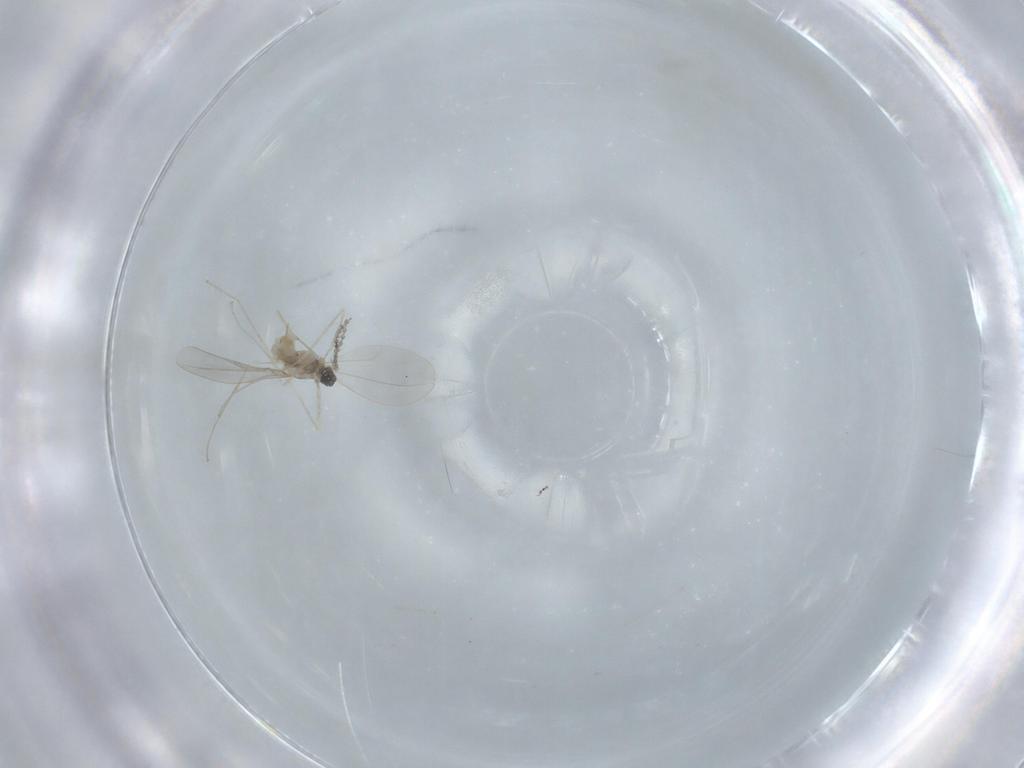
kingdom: Animalia
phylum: Arthropoda
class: Insecta
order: Diptera
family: Cecidomyiidae
